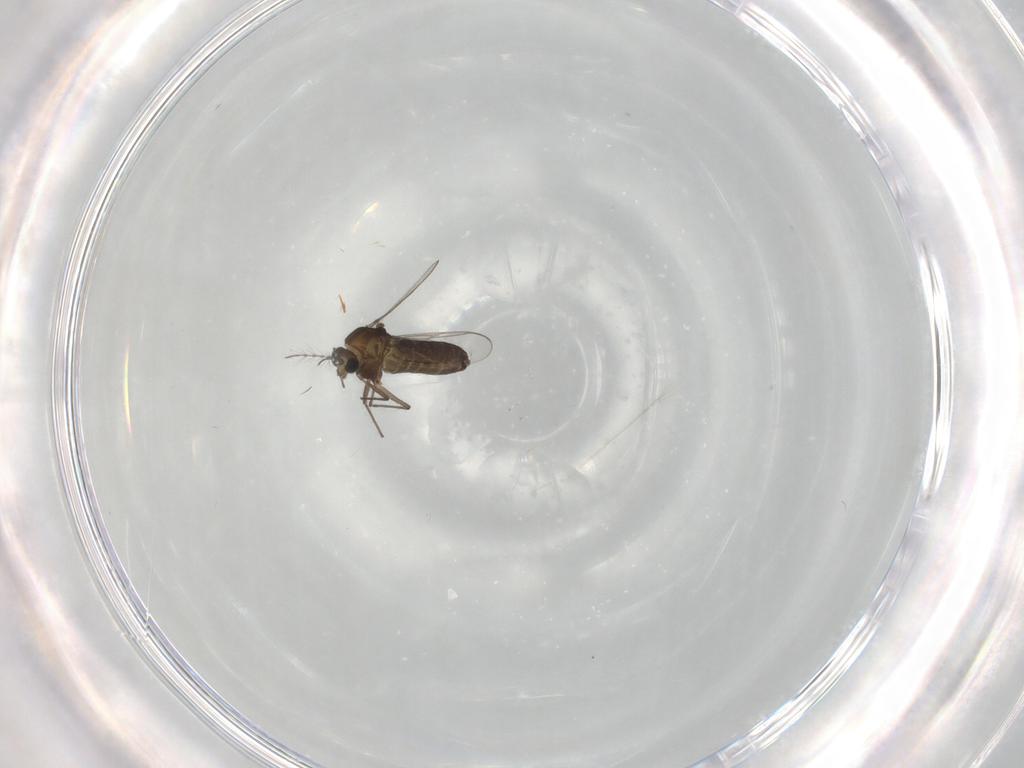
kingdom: Animalia
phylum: Arthropoda
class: Insecta
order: Diptera
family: Chironomidae
